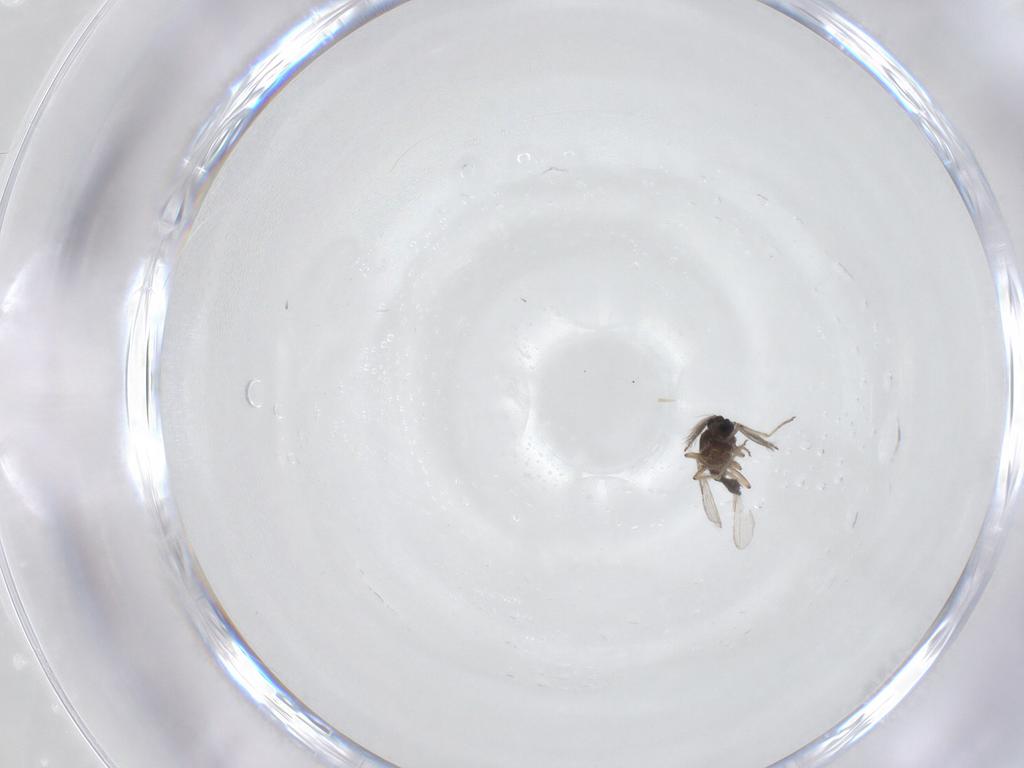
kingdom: Animalia
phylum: Arthropoda
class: Insecta
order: Diptera
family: Ceratopogonidae
